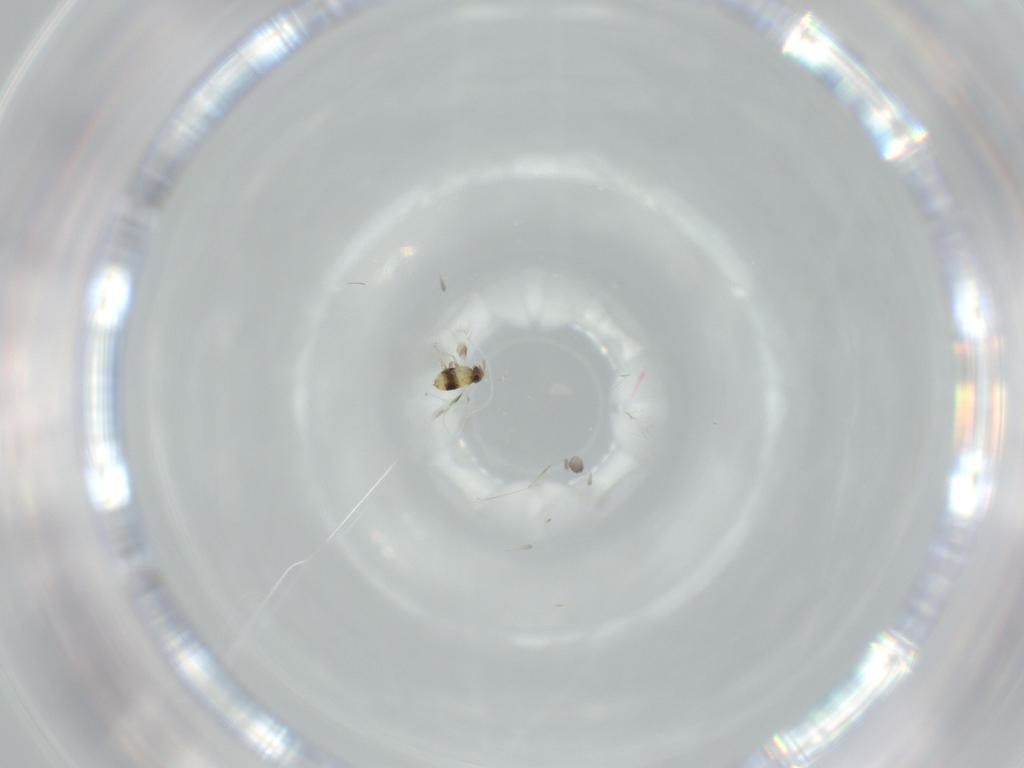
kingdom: Animalia
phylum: Arthropoda
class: Insecta
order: Hymenoptera
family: Signiphoridae
